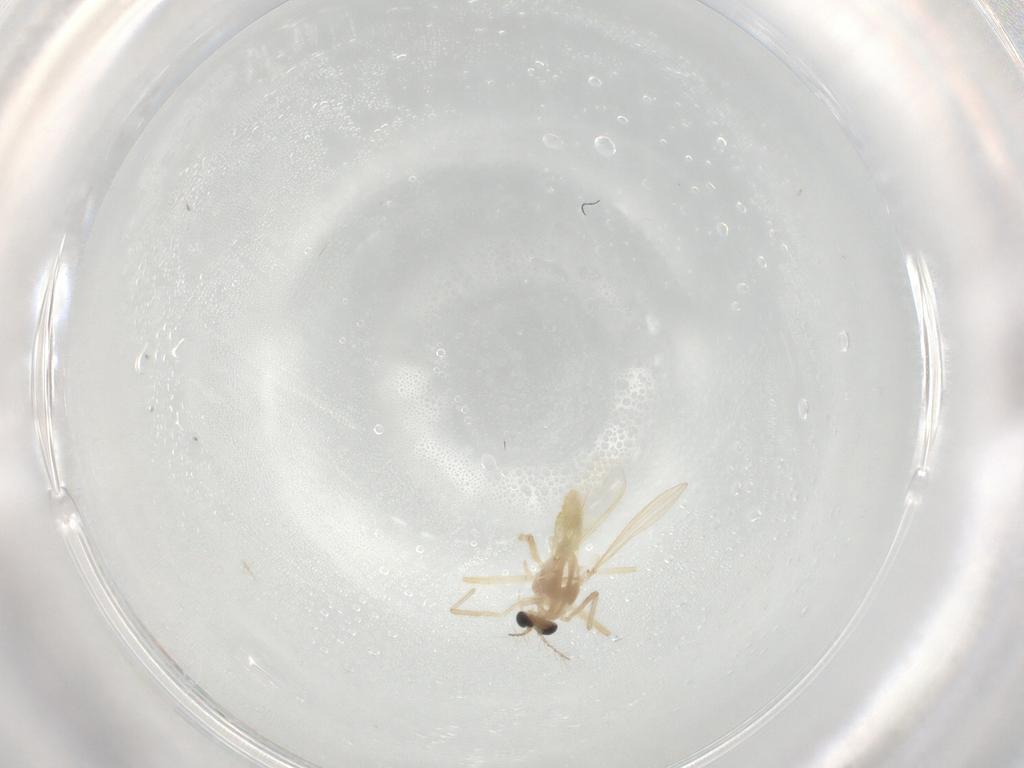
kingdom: Animalia
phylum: Arthropoda
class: Insecta
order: Diptera
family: Chironomidae
